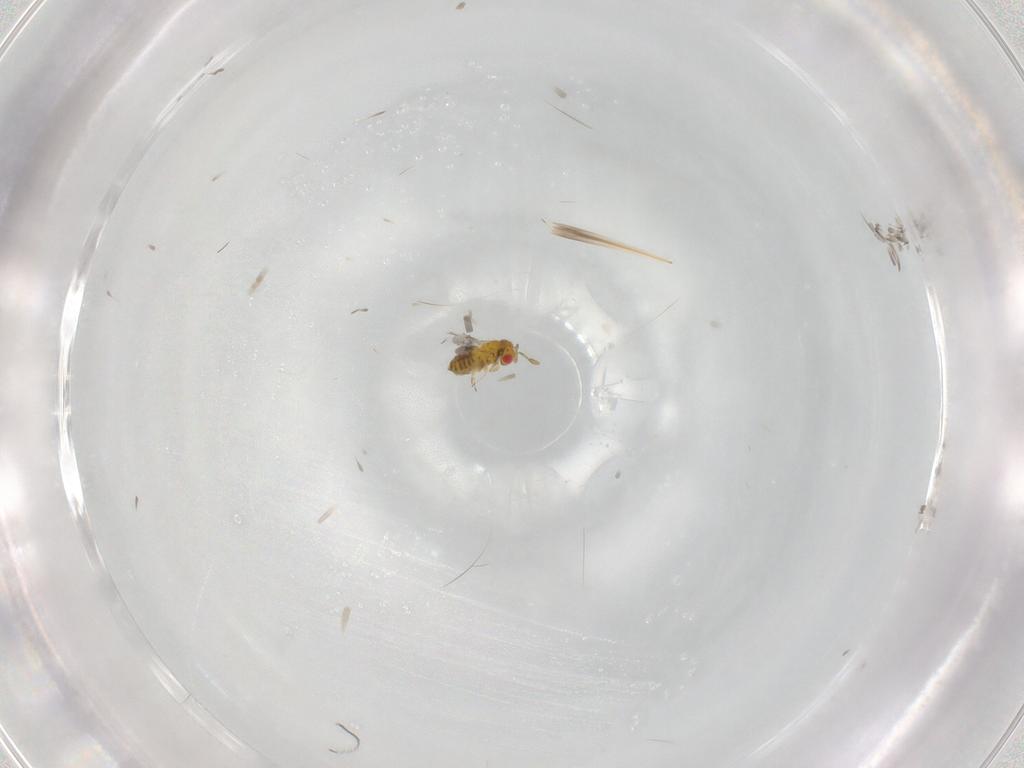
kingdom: Animalia
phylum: Arthropoda
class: Insecta
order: Hymenoptera
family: Trichogrammatidae
